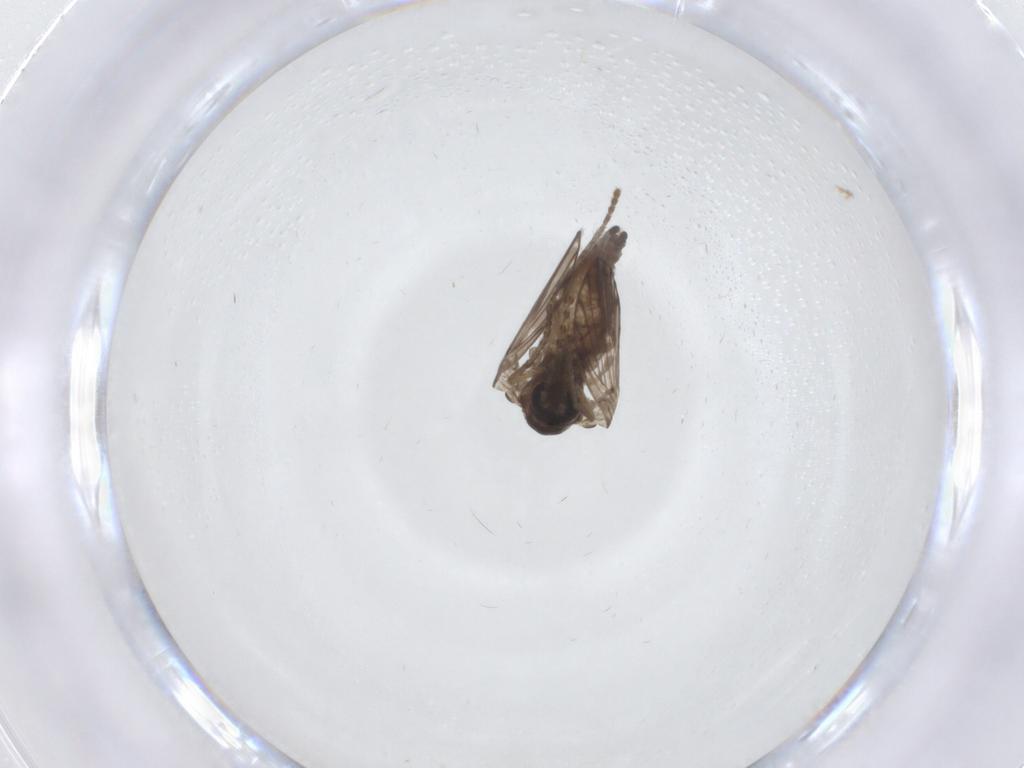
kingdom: Animalia
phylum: Arthropoda
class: Insecta
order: Diptera
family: Psychodidae
